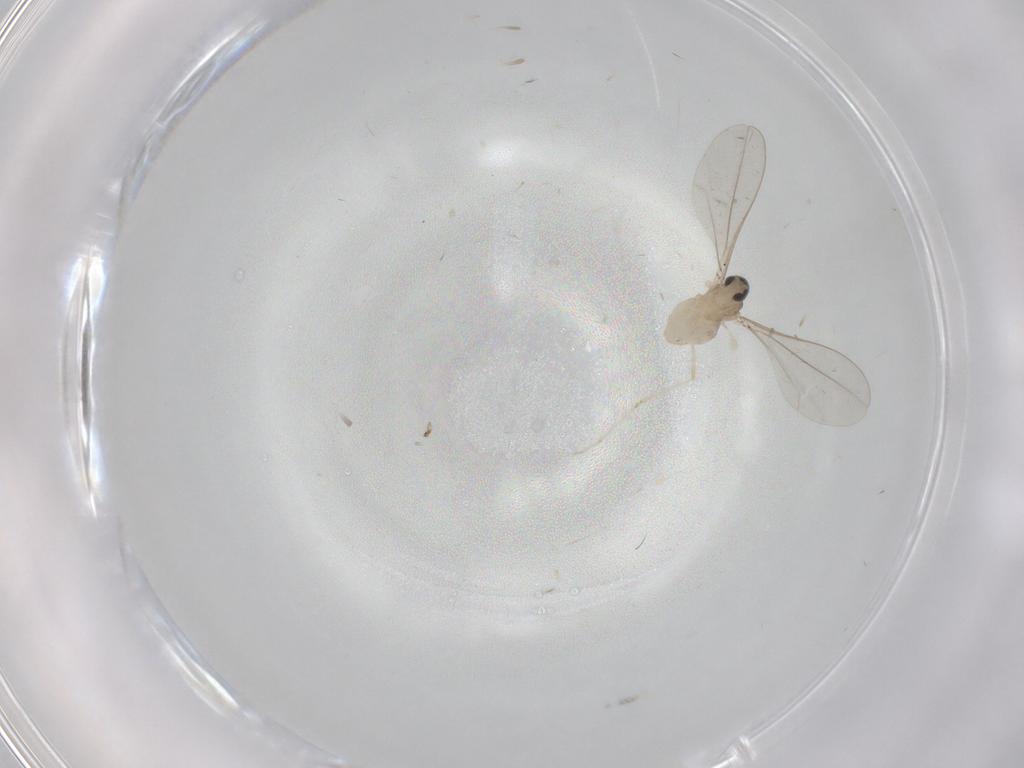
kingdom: Animalia
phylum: Arthropoda
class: Insecta
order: Diptera
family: Cecidomyiidae
